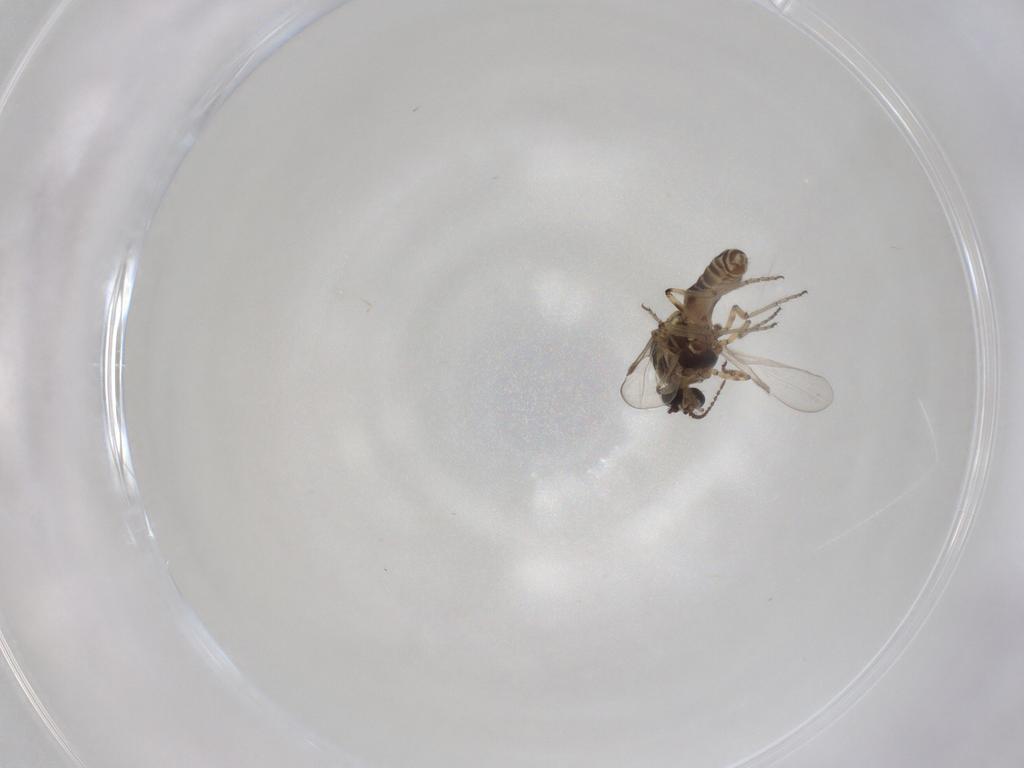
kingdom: Animalia
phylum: Arthropoda
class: Insecta
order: Diptera
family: Ceratopogonidae
